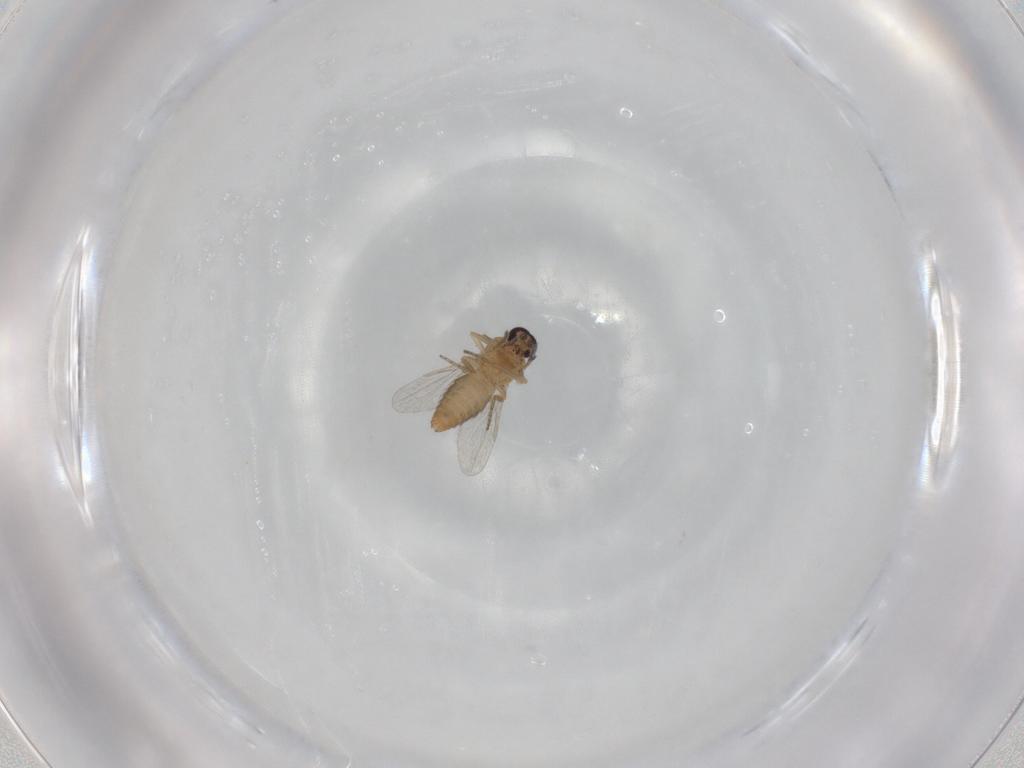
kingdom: Animalia
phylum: Arthropoda
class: Insecta
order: Diptera
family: Ceratopogonidae
